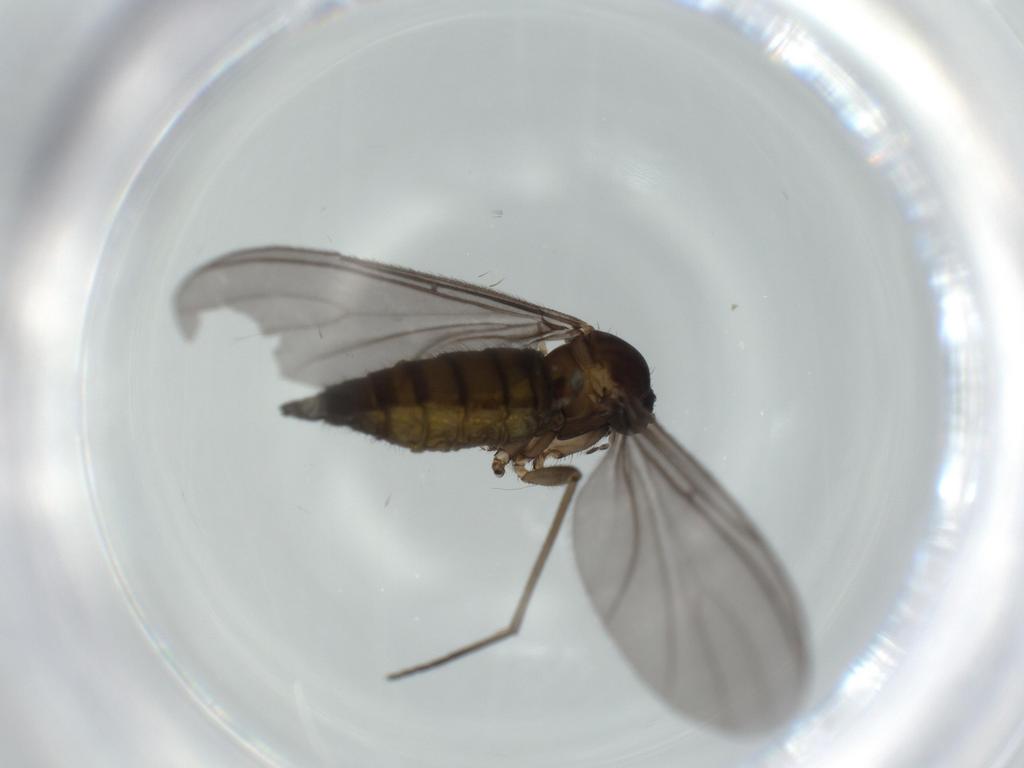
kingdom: Animalia
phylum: Arthropoda
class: Insecta
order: Diptera
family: Sciaridae
